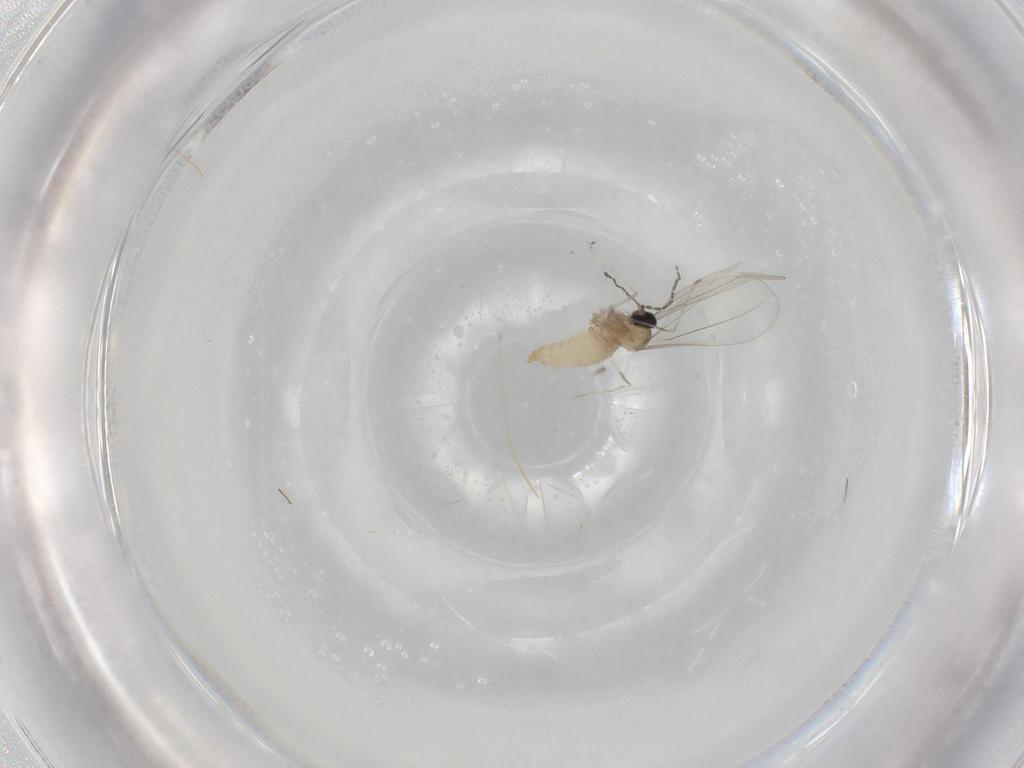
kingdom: Animalia
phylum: Arthropoda
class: Insecta
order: Diptera
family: Cecidomyiidae
